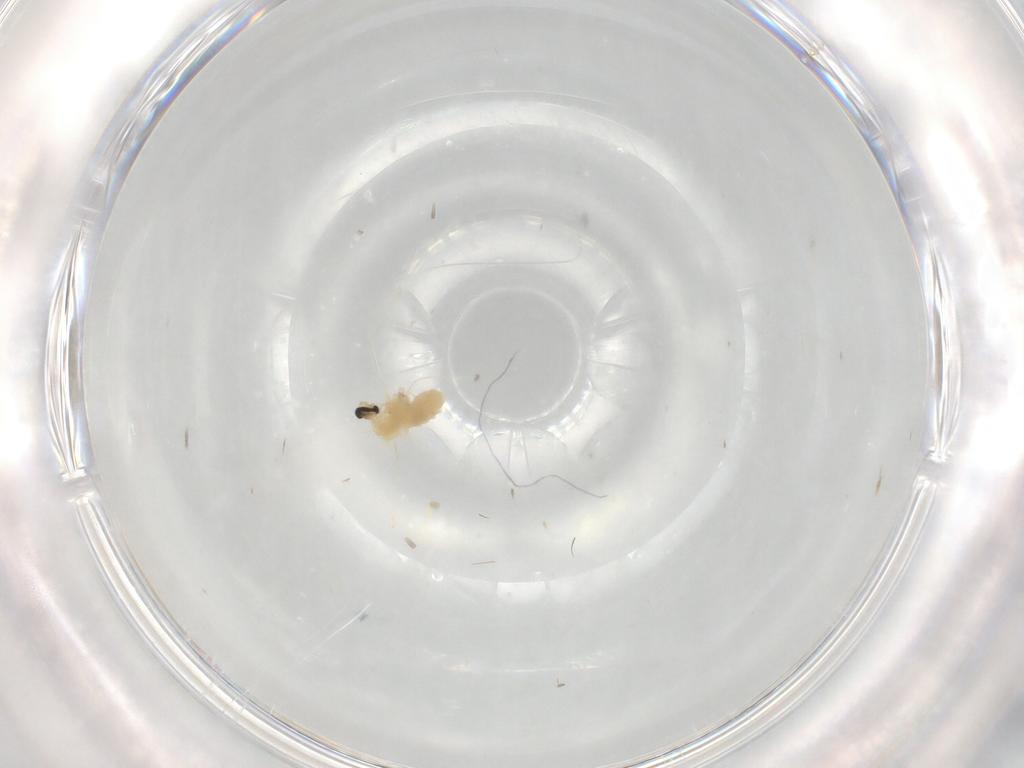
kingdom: Animalia
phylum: Arthropoda
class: Insecta
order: Diptera
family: Cecidomyiidae
